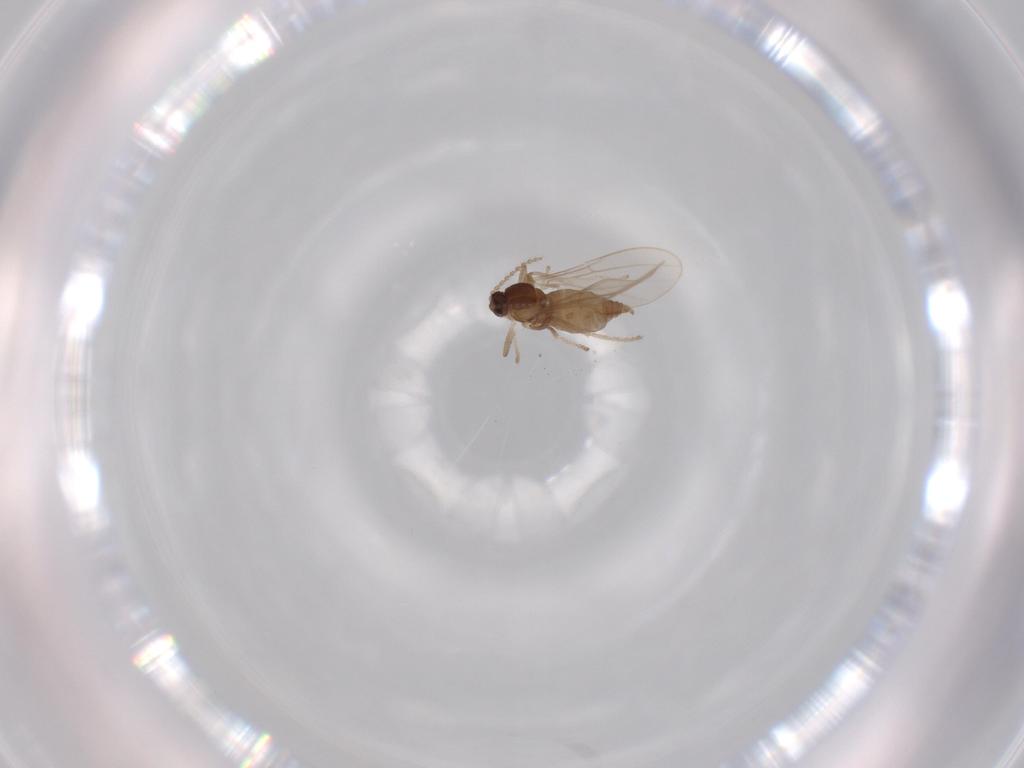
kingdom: Animalia
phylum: Arthropoda
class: Insecta
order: Diptera
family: Cecidomyiidae
